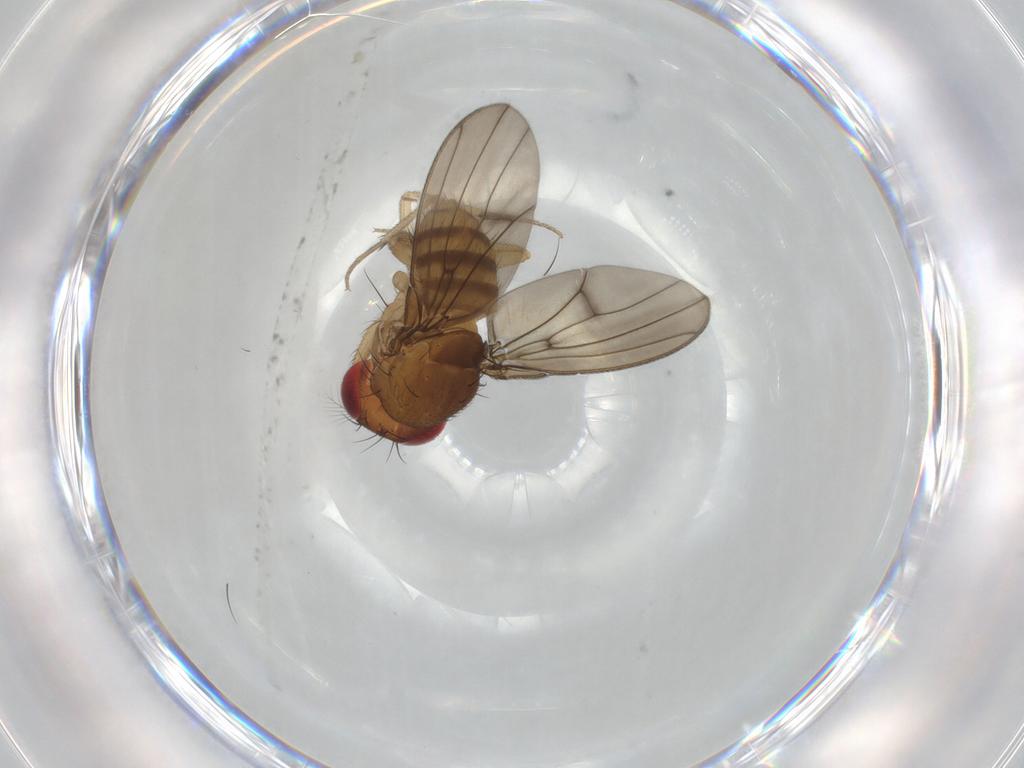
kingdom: Animalia
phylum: Arthropoda
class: Insecta
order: Diptera
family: Drosophilidae
